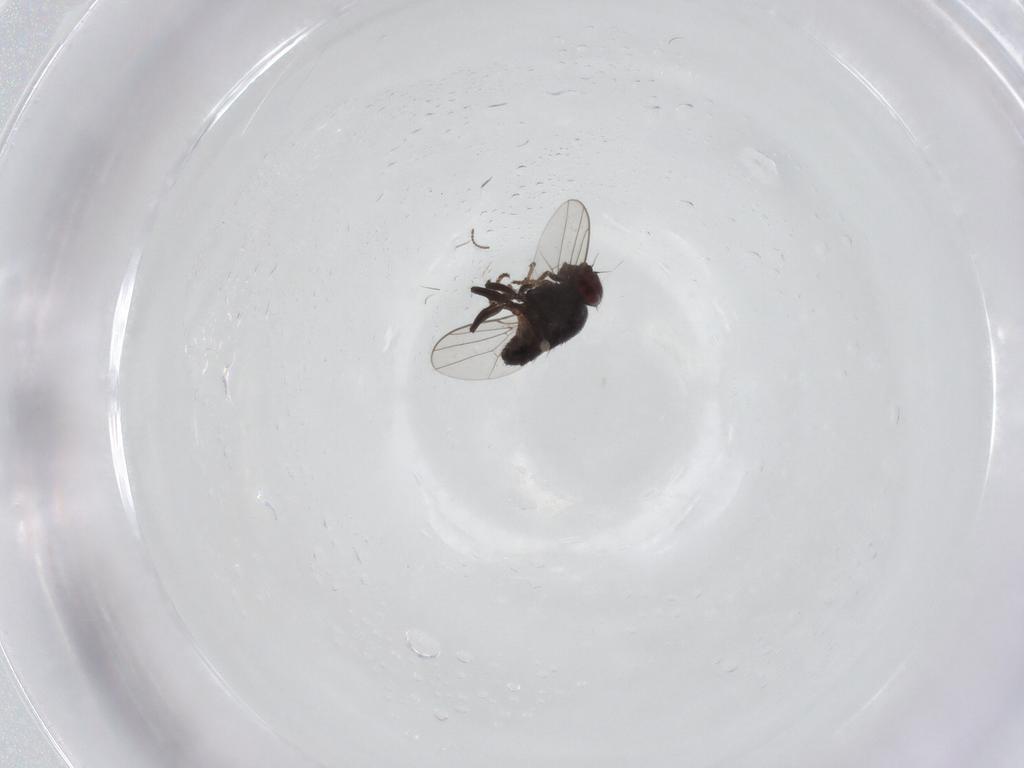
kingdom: Animalia
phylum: Arthropoda
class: Insecta
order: Diptera
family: Chloropidae
